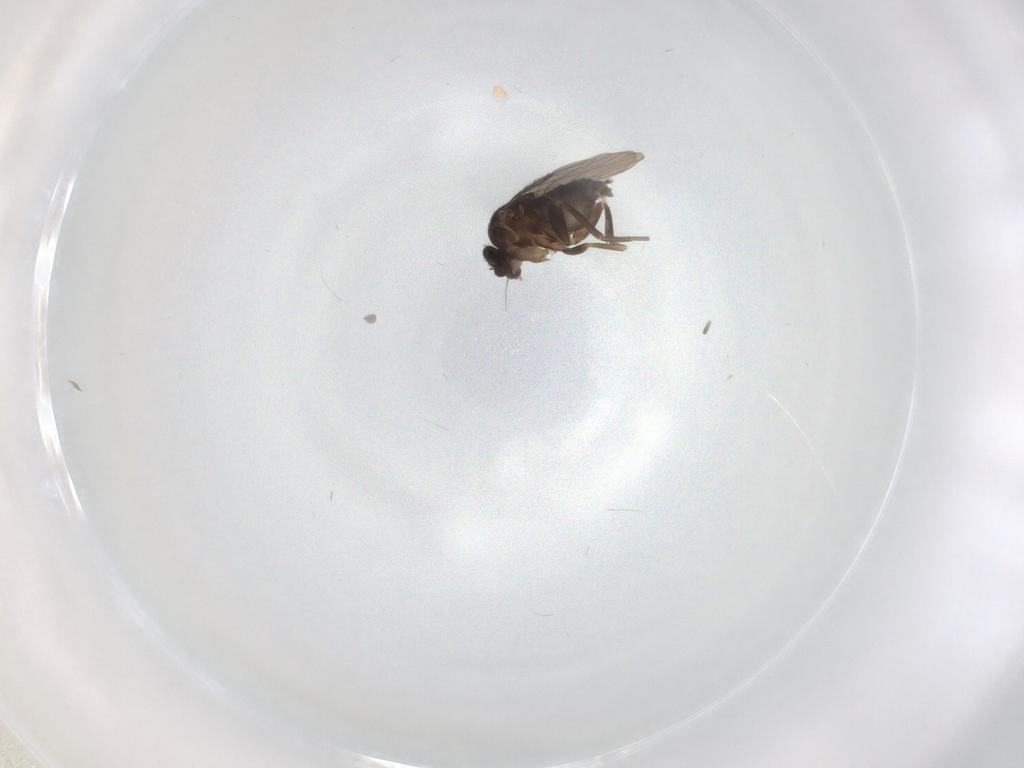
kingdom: Animalia
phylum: Arthropoda
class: Insecta
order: Diptera
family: Phoridae
